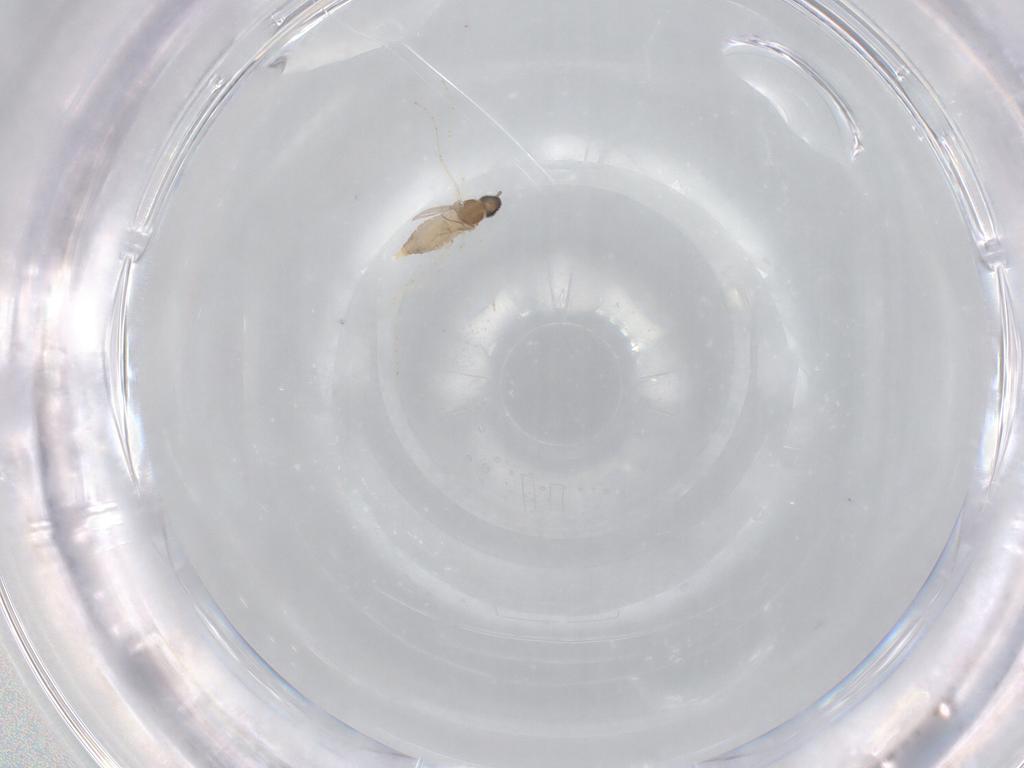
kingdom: Animalia
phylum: Arthropoda
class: Insecta
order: Diptera
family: Cecidomyiidae
